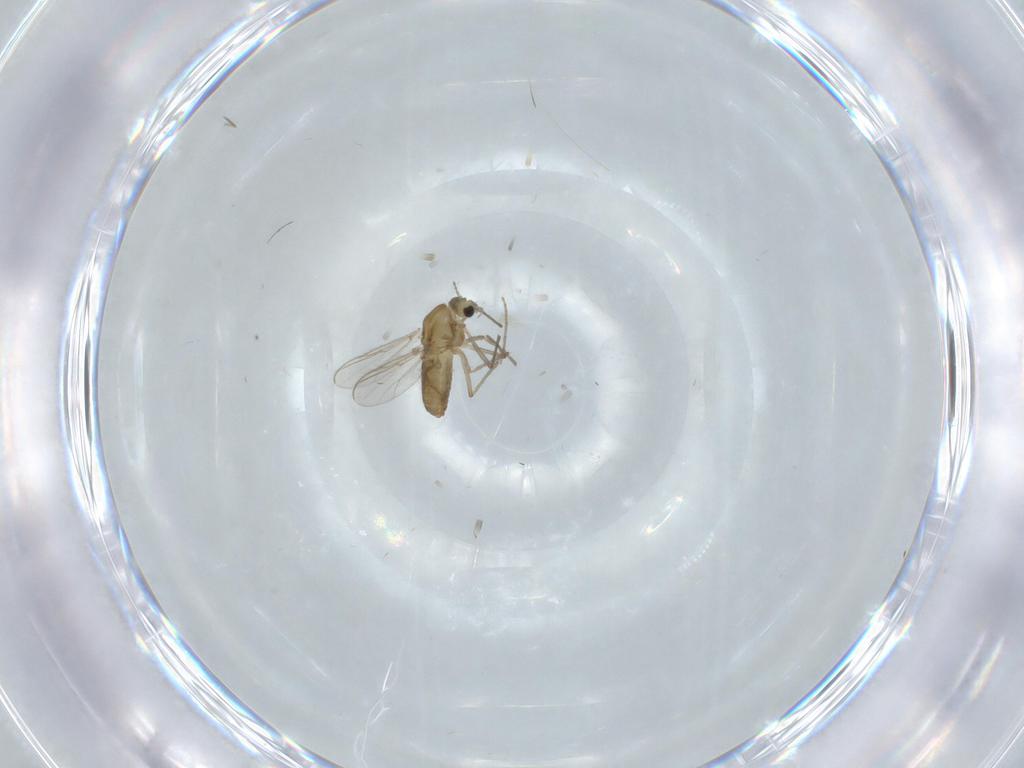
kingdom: Animalia
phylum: Arthropoda
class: Insecta
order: Diptera
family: Chironomidae
